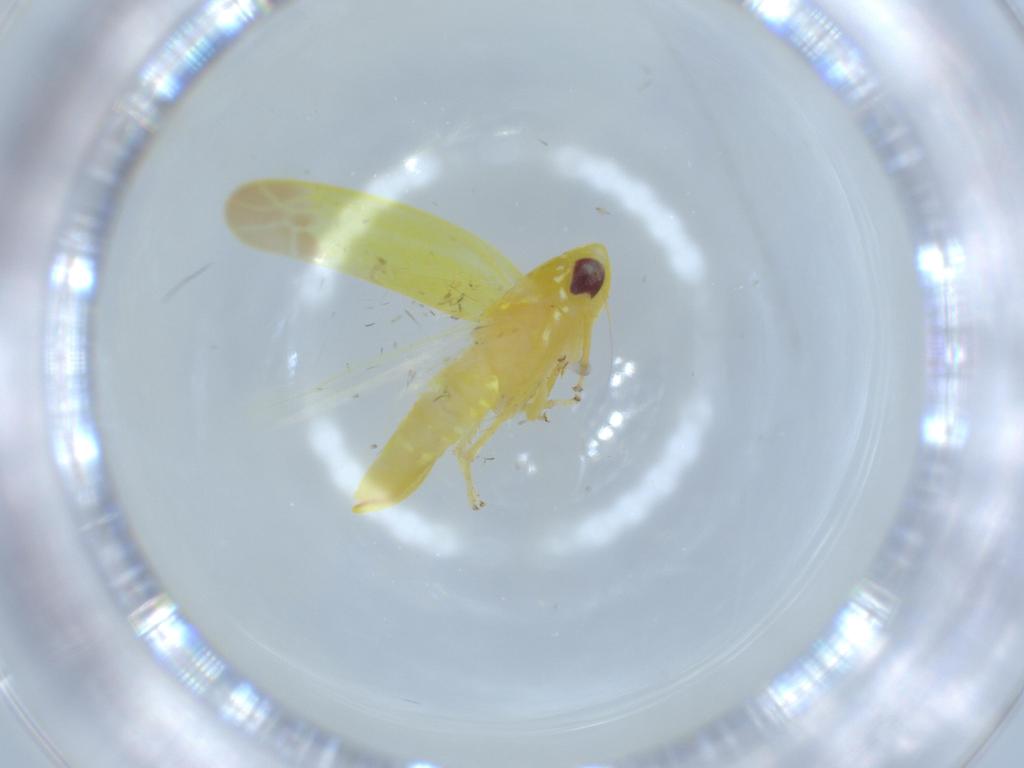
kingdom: Animalia
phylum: Arthropoda
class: Insecta
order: Hemiptera
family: Cicadellidae
